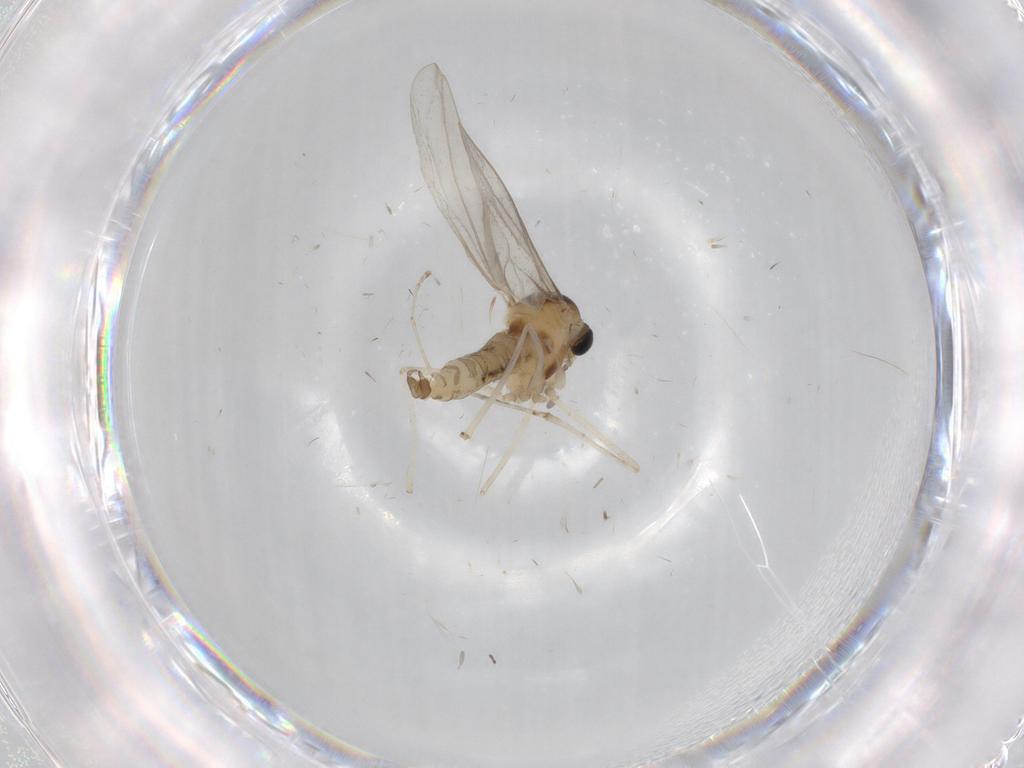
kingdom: Animalia
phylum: Arthropoda
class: Insecta
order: Diptera
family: Cecidomyiidae
